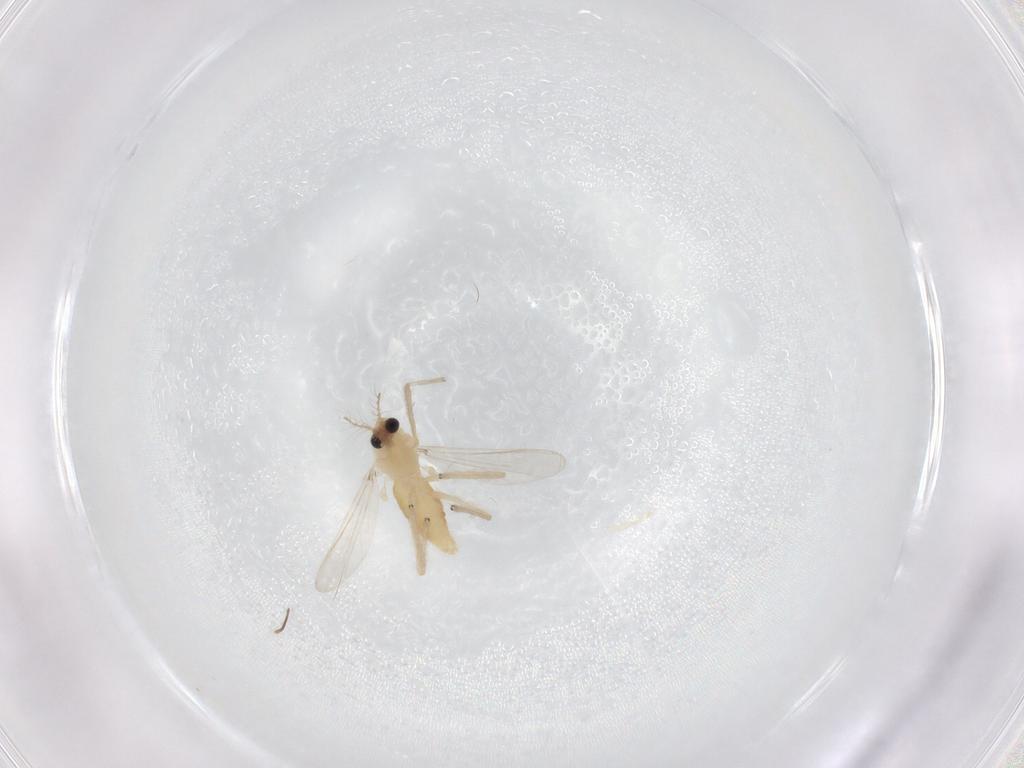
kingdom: Animalia
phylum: Arthropoda
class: Insecta
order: Diptera
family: Chironomidae
